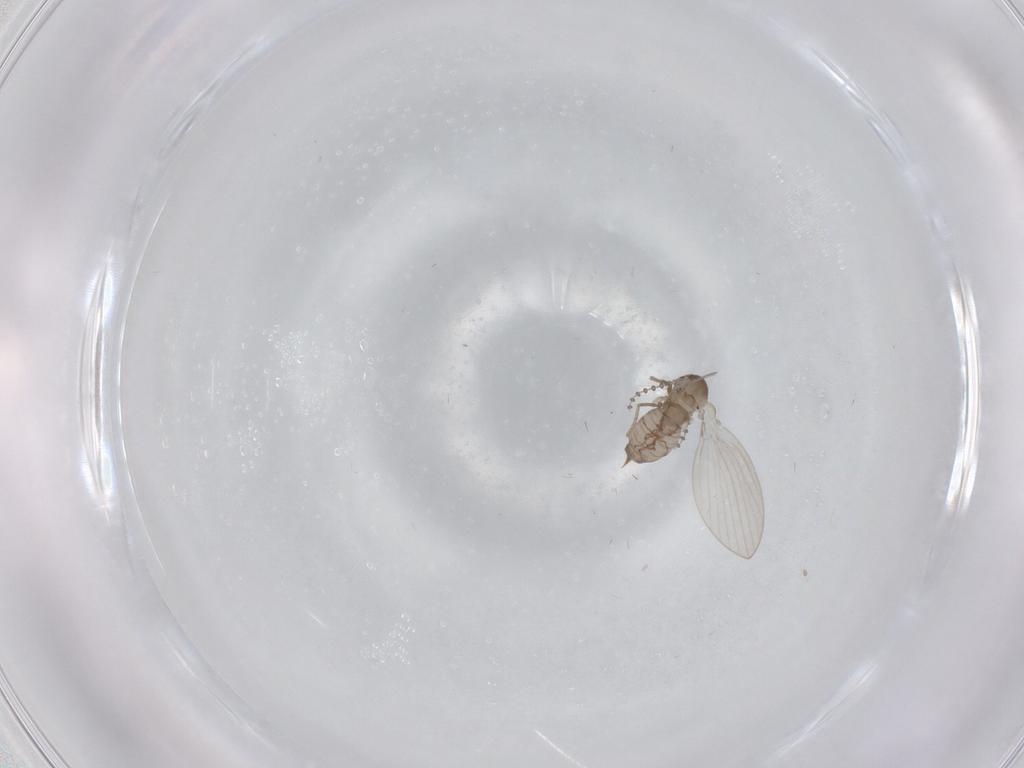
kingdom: Animalia
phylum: Arthropoda
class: Insecta
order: Diptera
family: Psychodidae
